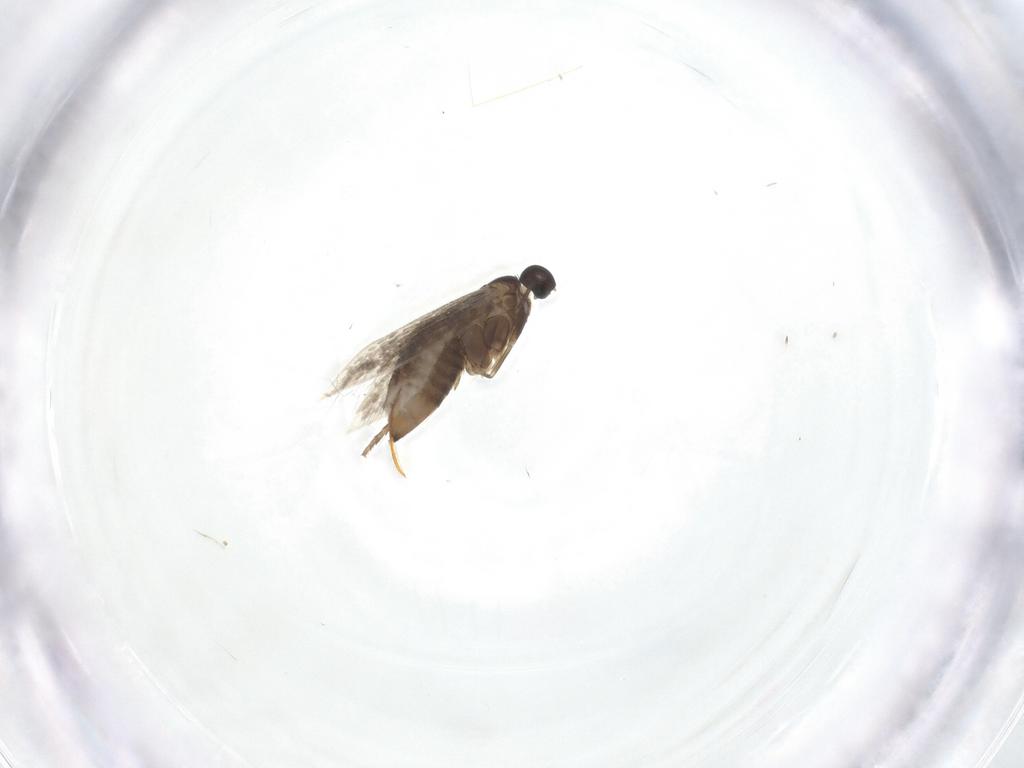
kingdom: Animalia
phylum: Arthropoda
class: Insecta
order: Lepidoptera
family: Heliozelidae
